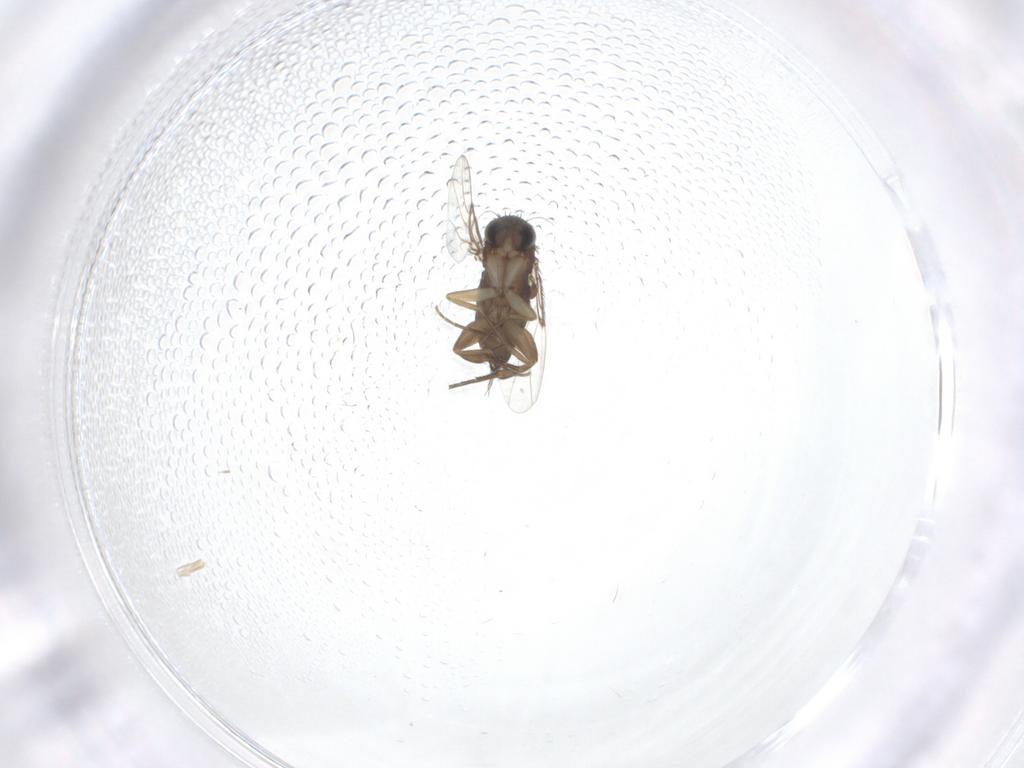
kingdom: Animalia
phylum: Arthropoda
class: Insecta
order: Diptera
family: Phoridae
